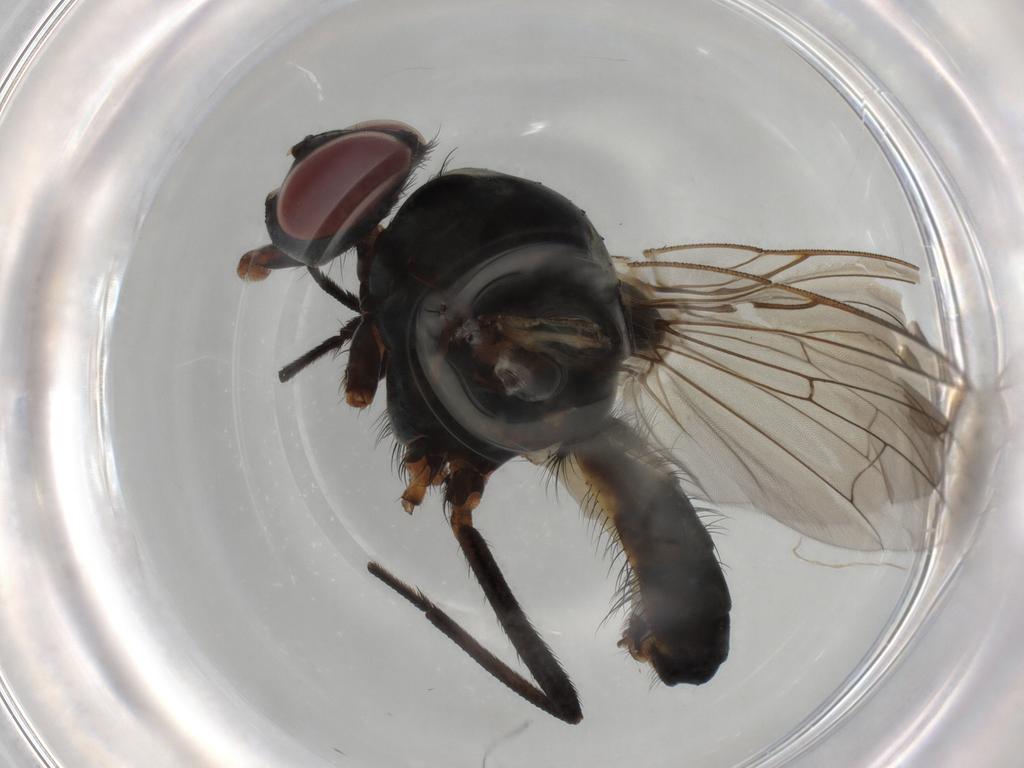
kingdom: Animalia
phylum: Arthropoda
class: Insecta
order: Diptera
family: Anthomyiidae
